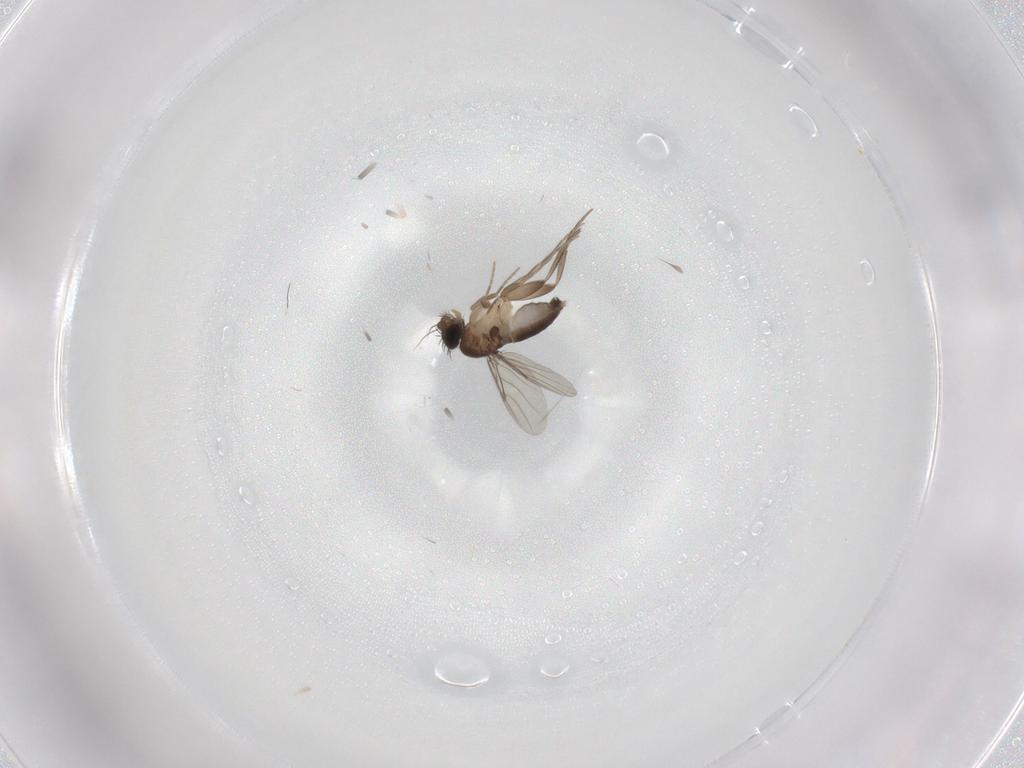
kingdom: Animalia
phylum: Arthropoda
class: Insecta
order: Diptera
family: Phoridae
